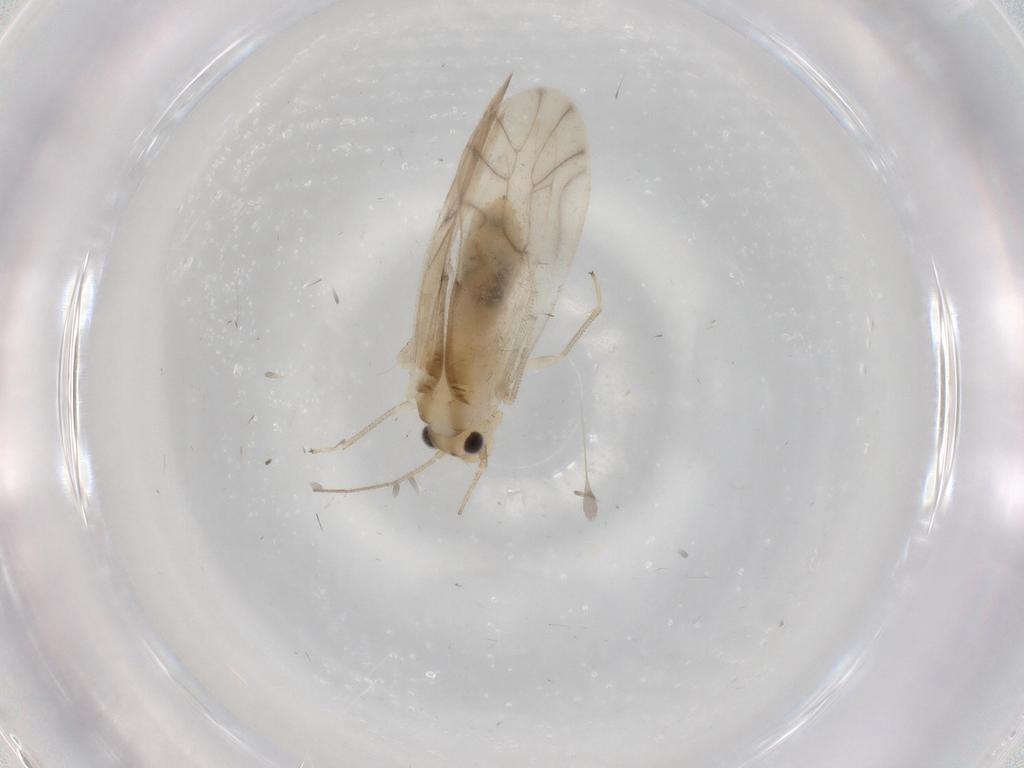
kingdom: Animalia
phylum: Arthropoda
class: Insecta
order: Psocodea
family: Caeciliusidae
